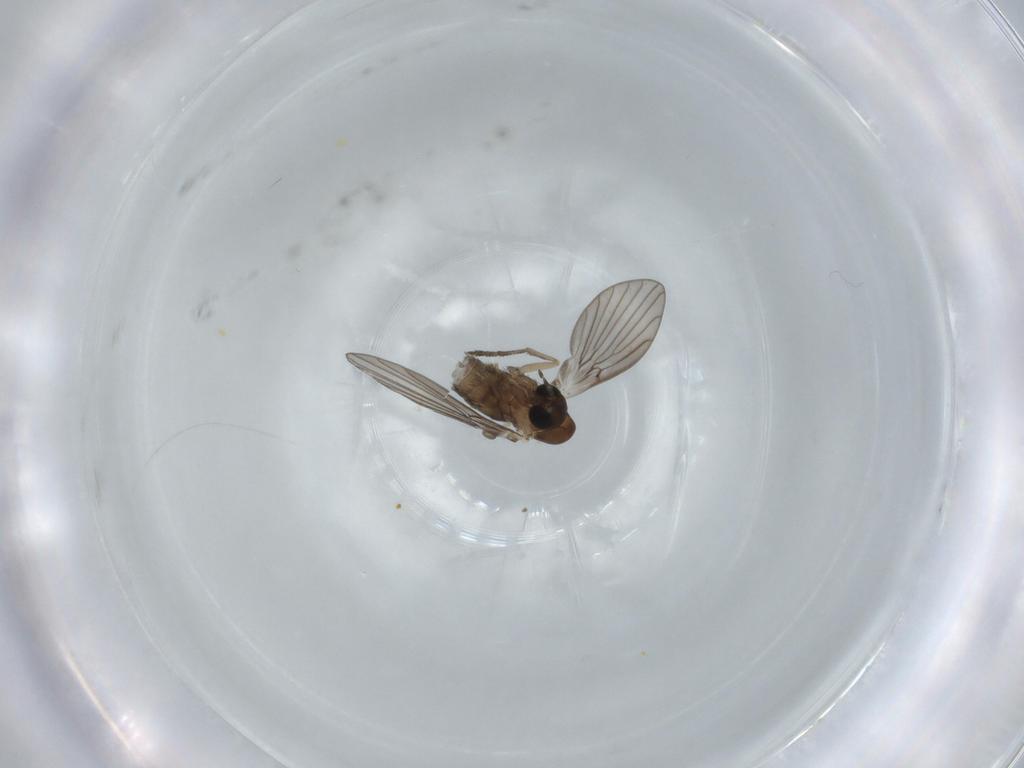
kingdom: Animalia
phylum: Arthropoda
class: Insecta
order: Diptera
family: Psychodidae
